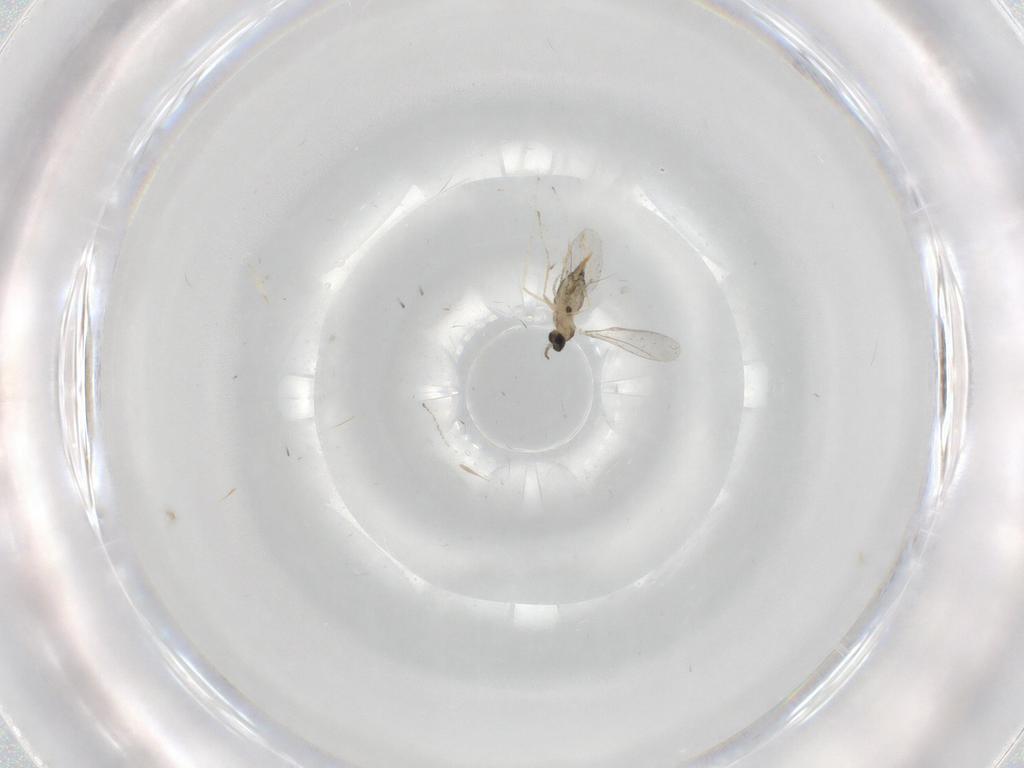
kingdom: Animalia
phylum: Arthropoda
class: Insecta
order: Diptera
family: Cecidomyiidae
